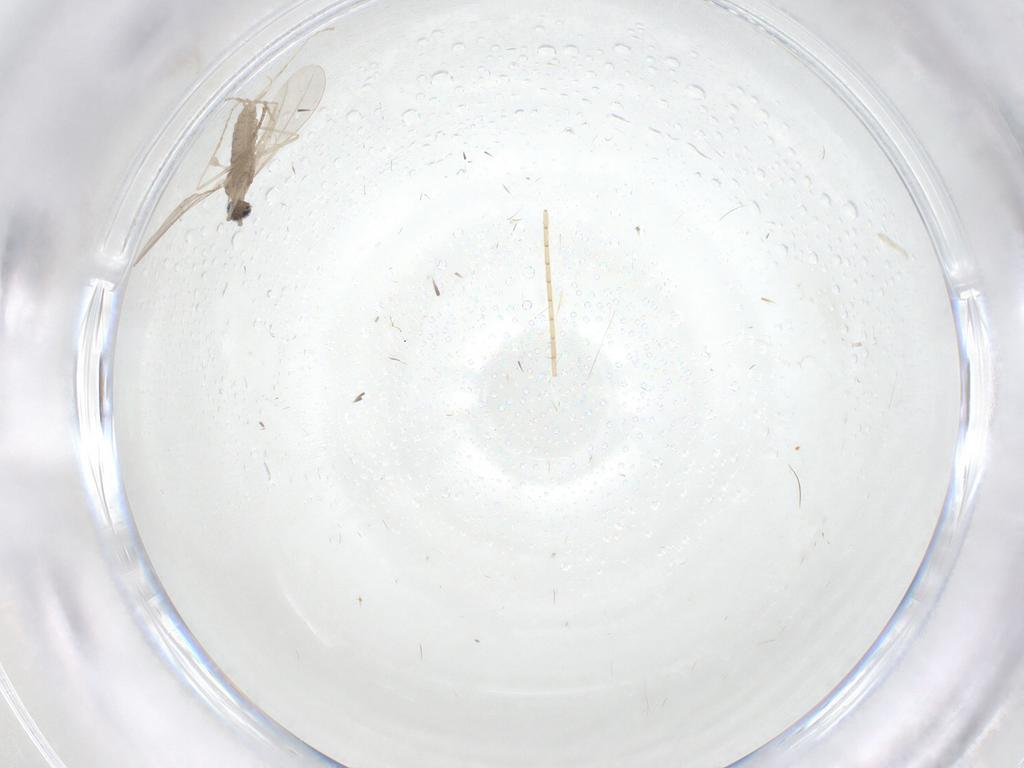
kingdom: Animalia
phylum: Arthropoda
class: Insecta
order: Diptera
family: Cecidomyiidae
